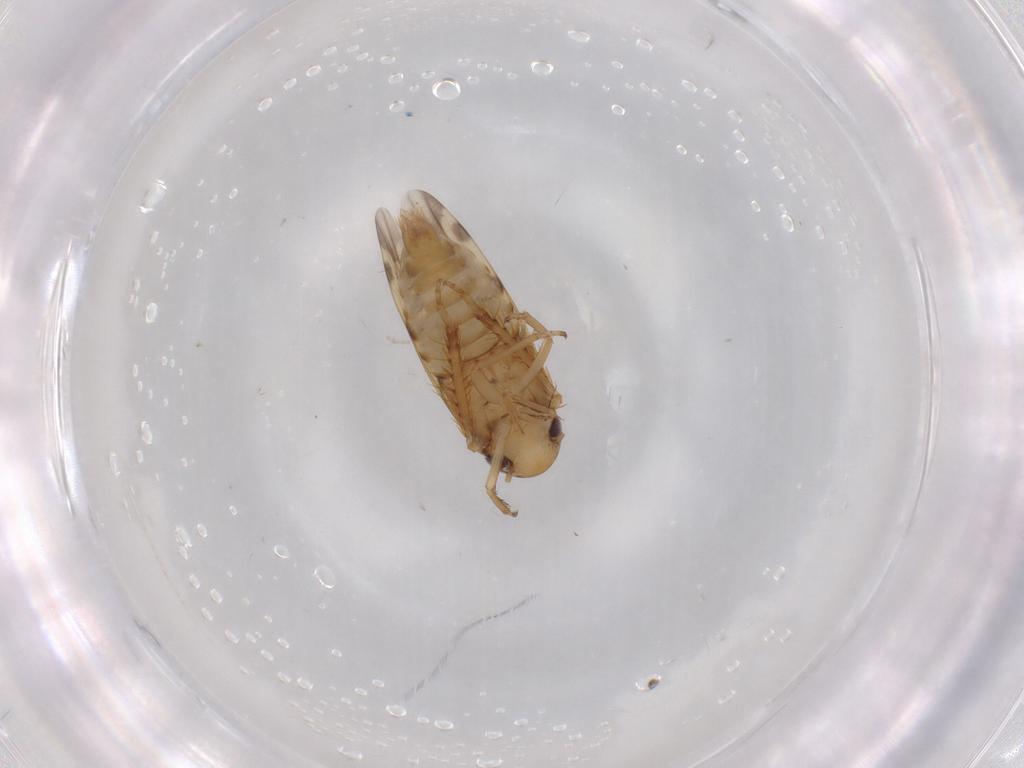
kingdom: Animalia
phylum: Arthropoda
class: Insecta
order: Hemiptera
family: Cicadellidae
